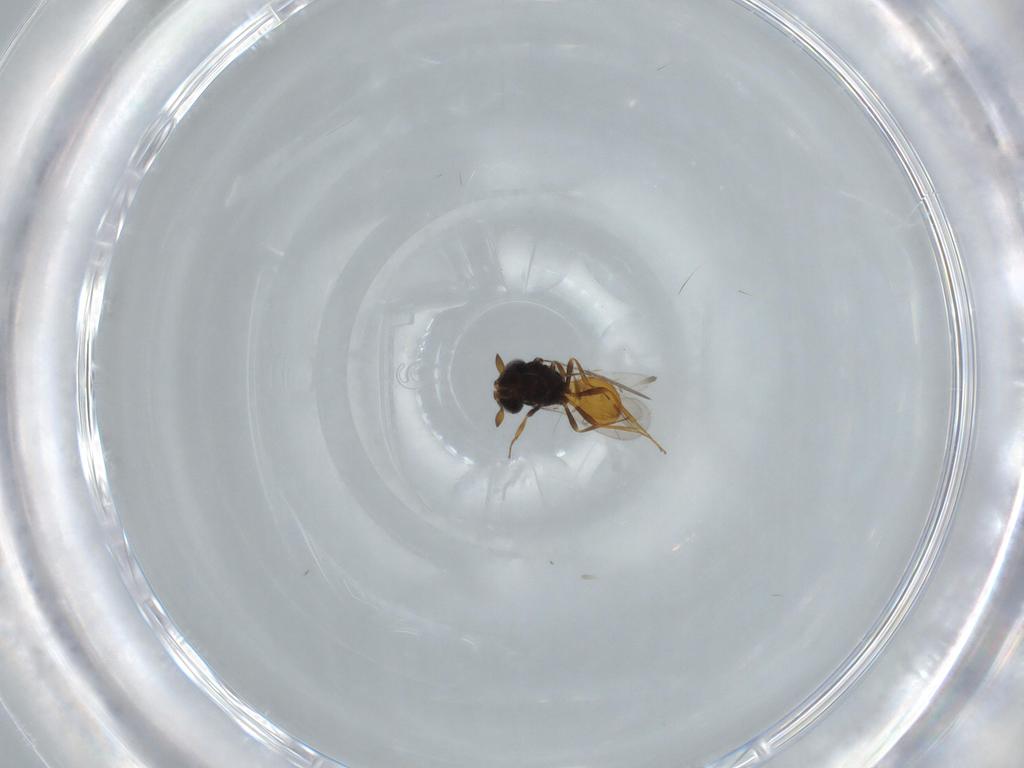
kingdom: Animalia
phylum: Arthropoda
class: Insecta
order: Hymenoptera
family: Scelionidae
